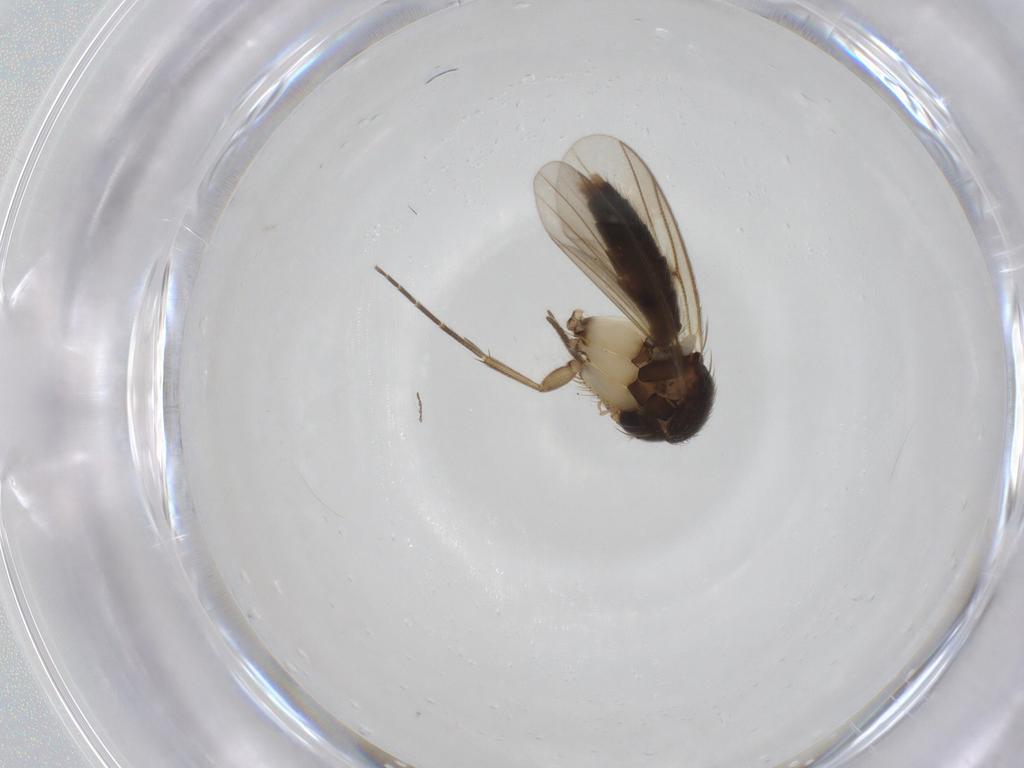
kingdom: Animalia
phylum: Arthropoda
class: Insecta
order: Diptera
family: Mycetophilidae
